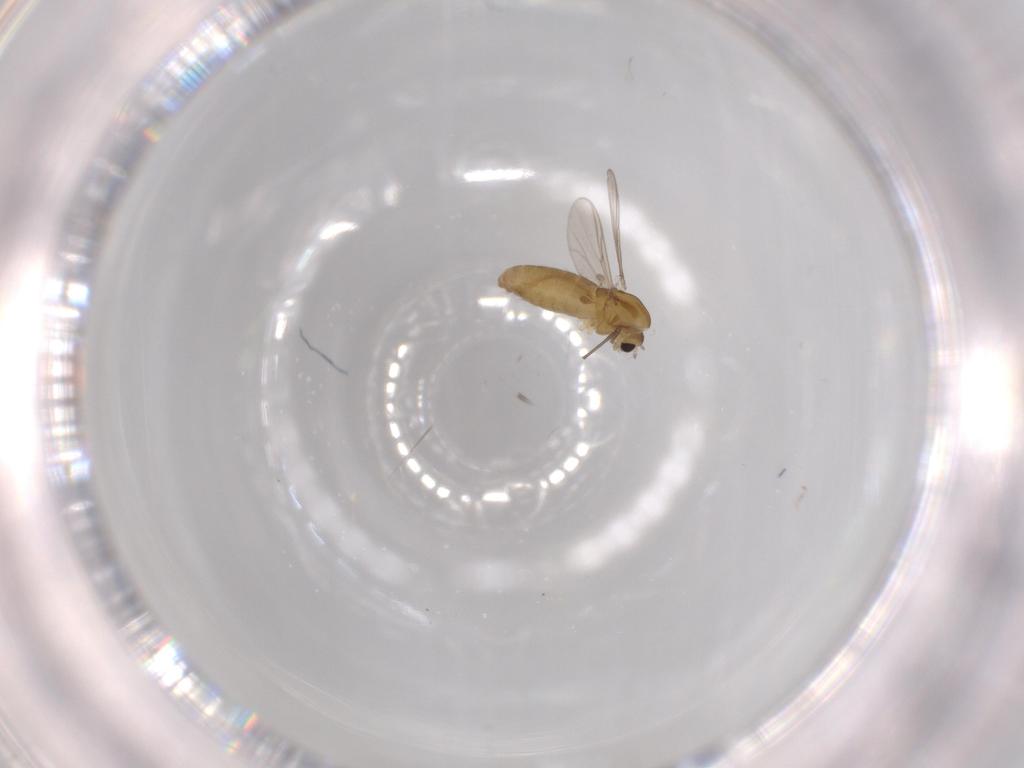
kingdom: Animalia
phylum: Arthropoda
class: Insecta
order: Diptera
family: Chironomidae
